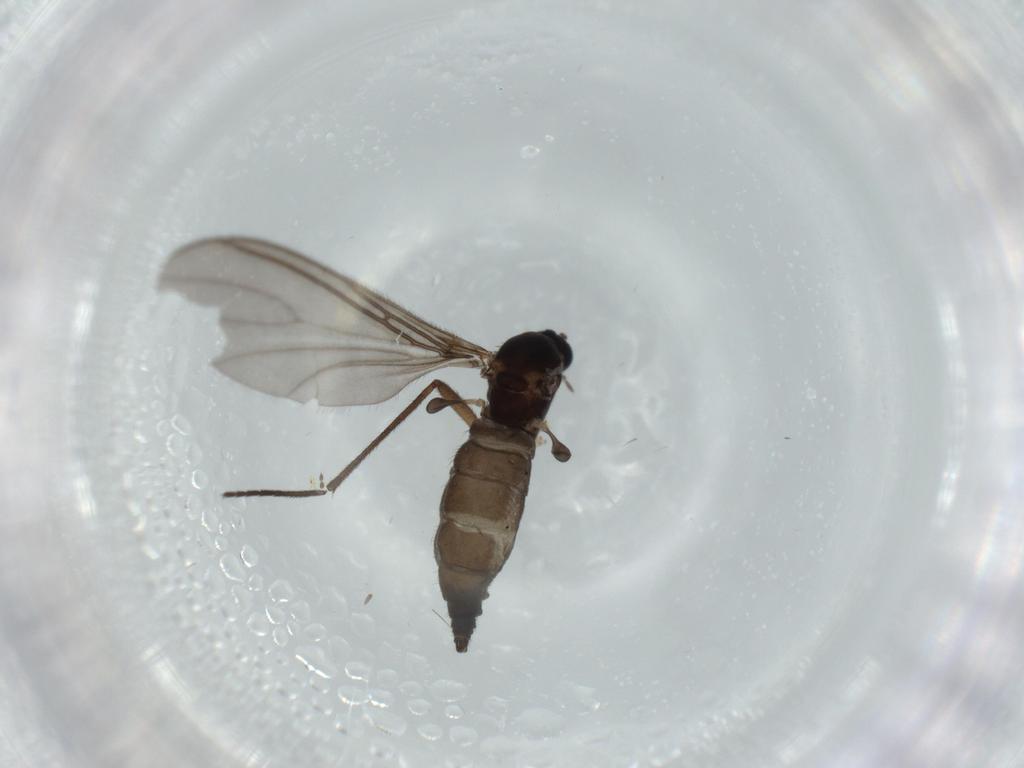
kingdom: Animalia
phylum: Arthropoda
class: Insecta
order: Diptera
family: Sciaridae
